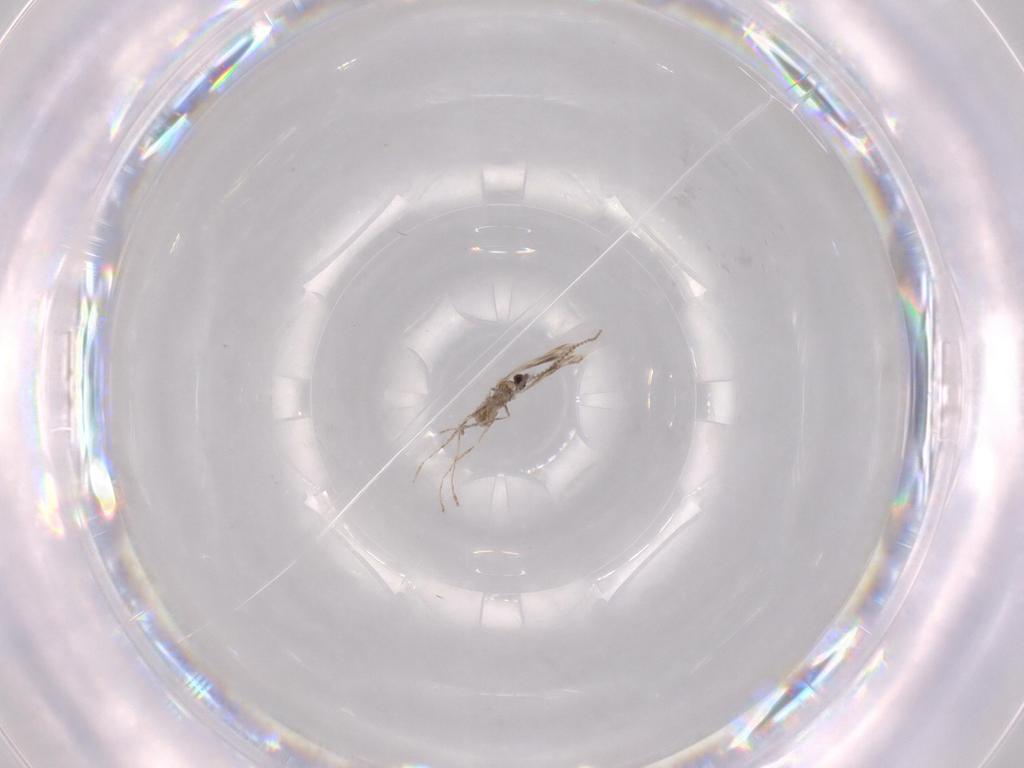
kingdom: Animalia
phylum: Arthropoda
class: Insecta
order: Diptera
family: Cecidomyiidae
